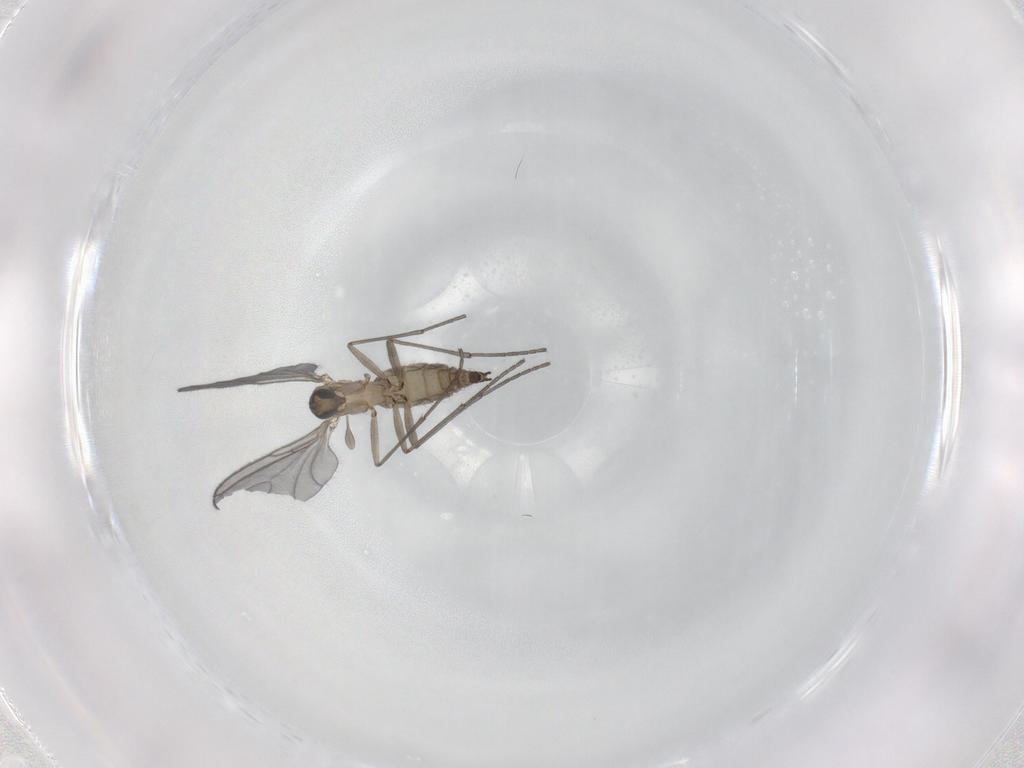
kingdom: Animalia
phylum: Arthropoda
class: Insecta
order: Diptera
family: Sciaridae
